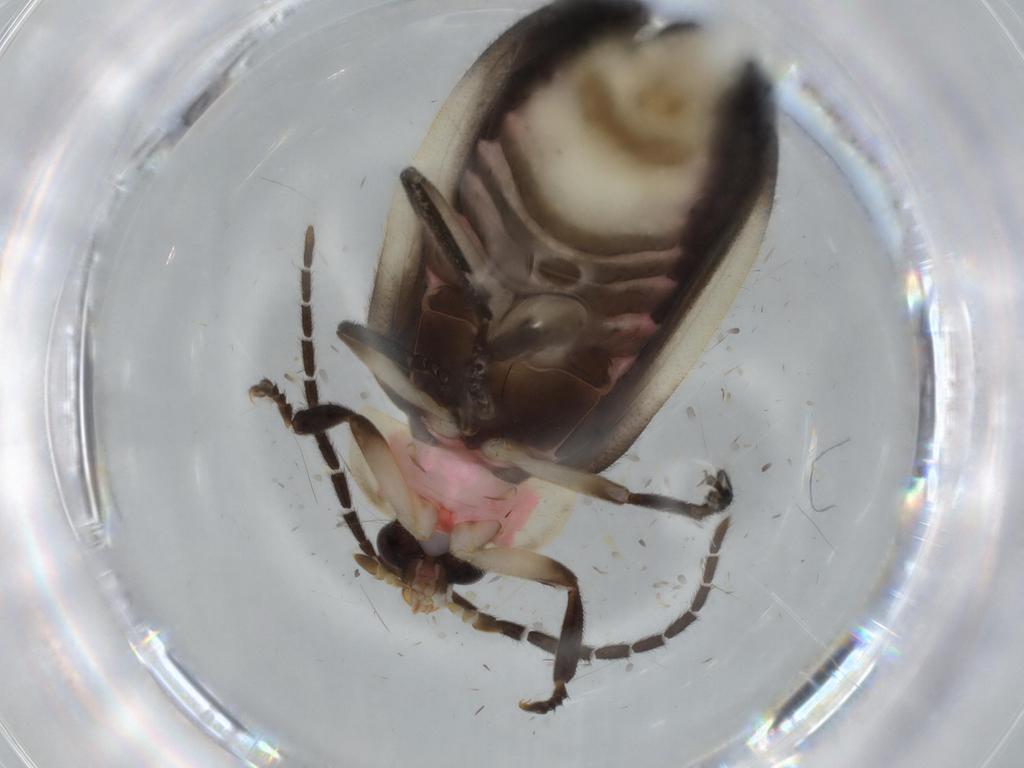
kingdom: Animalia
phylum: Arthropoda
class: Insecta
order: Coleoptera
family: Lampyridae
